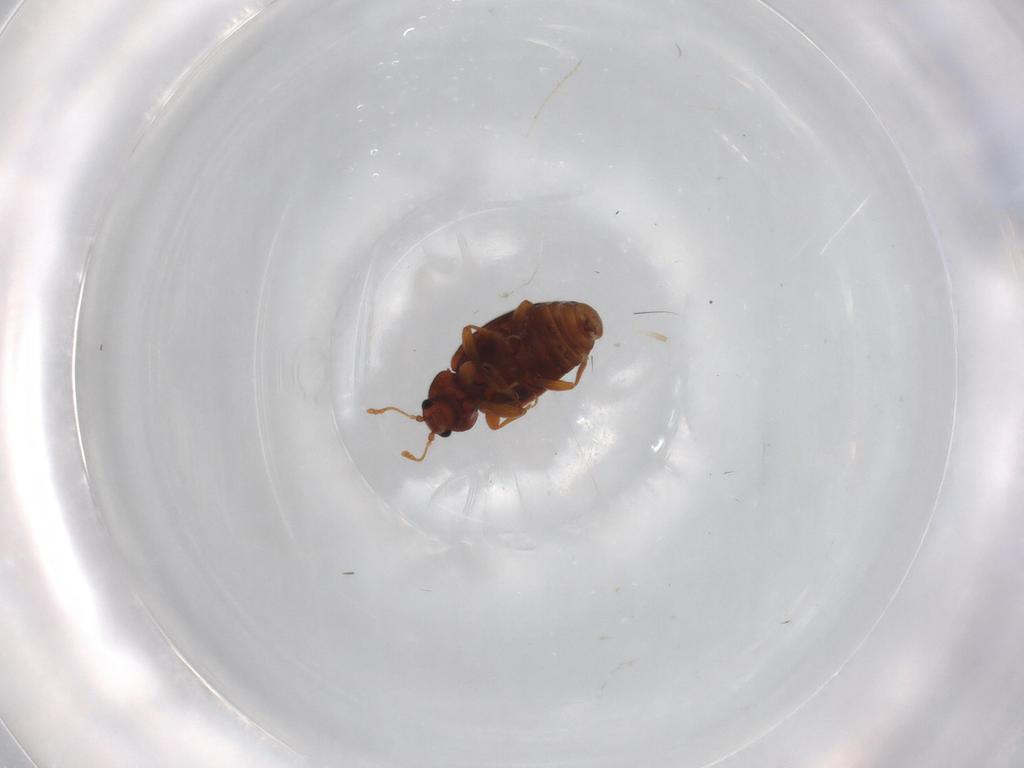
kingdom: Animalia
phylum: Arthropoda
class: Insecta
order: Coleoptera
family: Latridiidae
